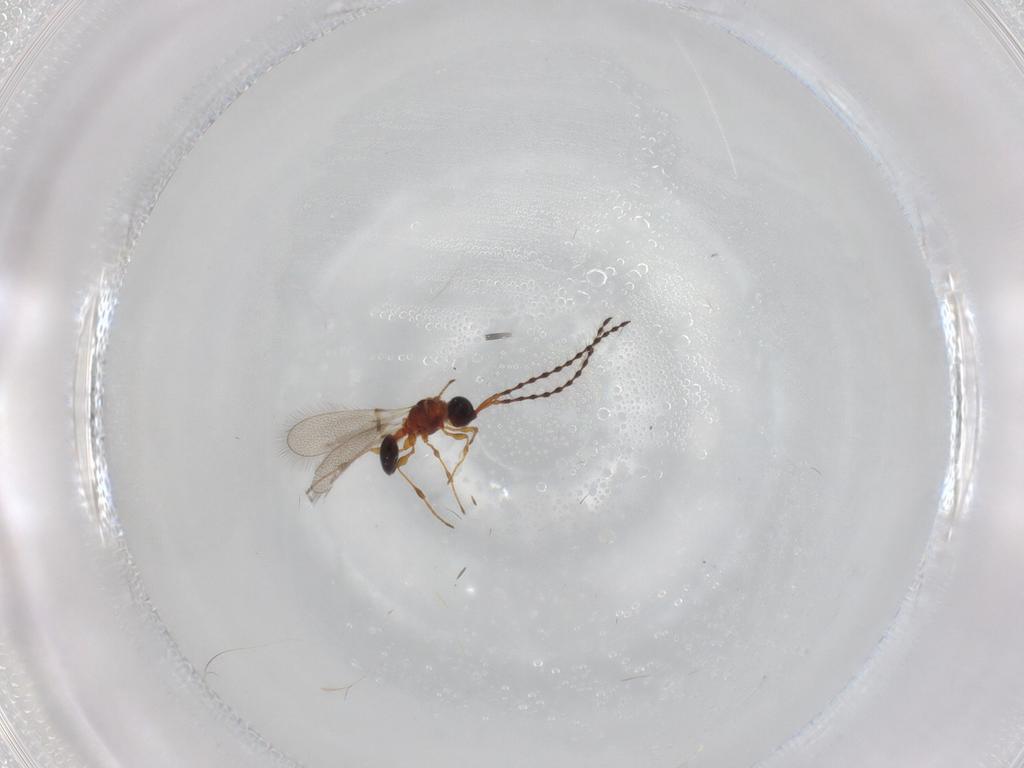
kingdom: Animalia
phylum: Arthropoda
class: Insecta
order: Hymenoptera
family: Diapriidae
